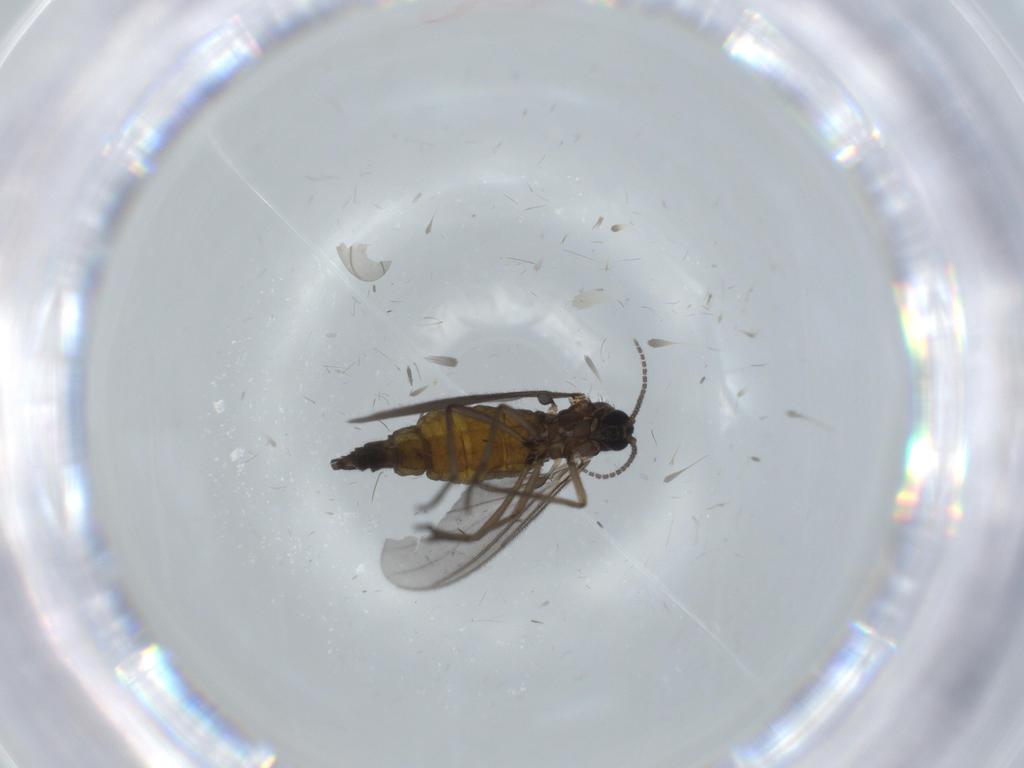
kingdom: Animalia
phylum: Arthropoda
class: Insecta
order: Diptera
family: Sciaridae
